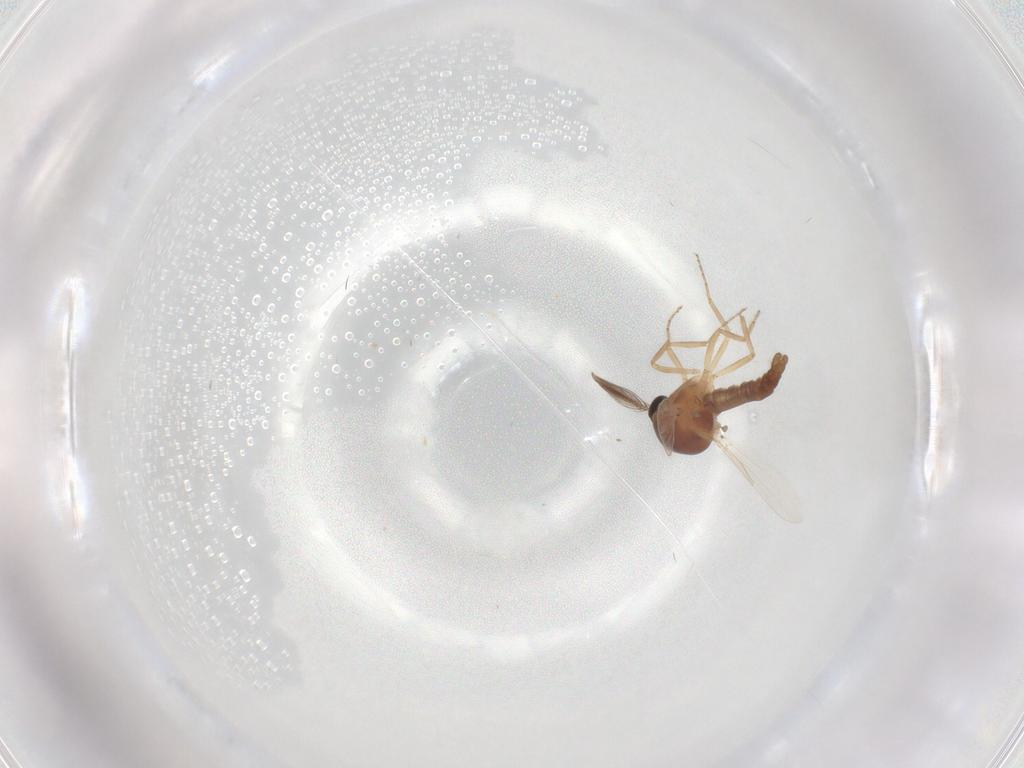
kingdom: Animalia
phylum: Arthropoda
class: Insecta
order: Diptera
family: Ceratopogonidae
